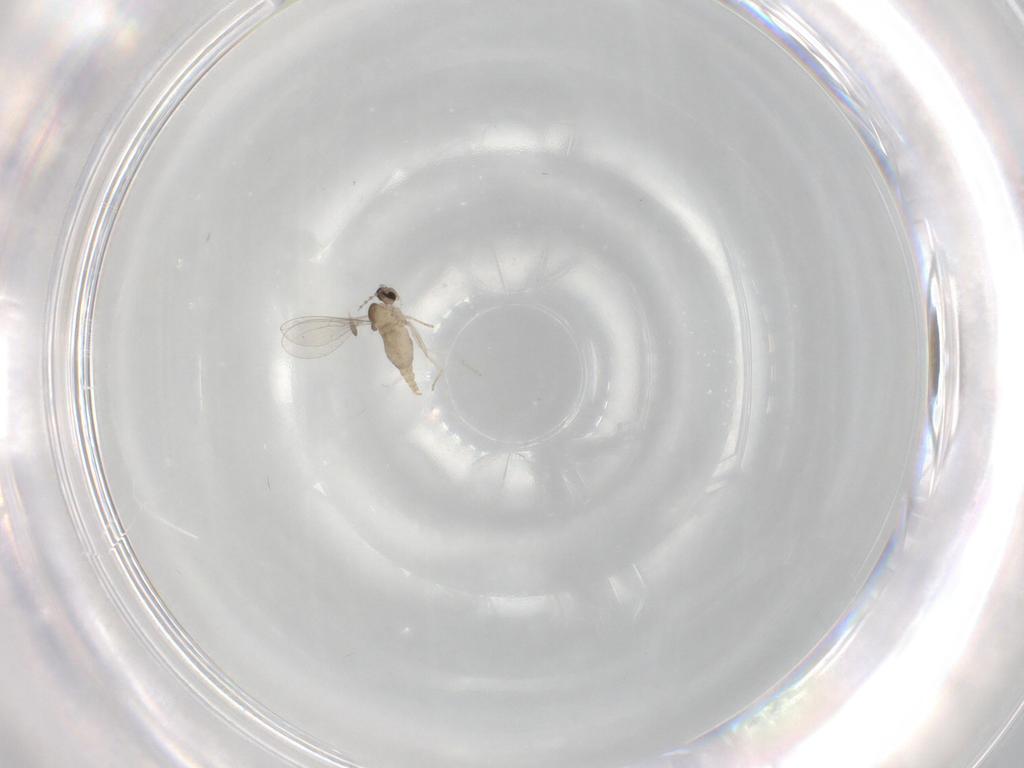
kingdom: Animalia
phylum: Arthropoda
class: Insecta
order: Diptera
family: Cecidomyiidae
